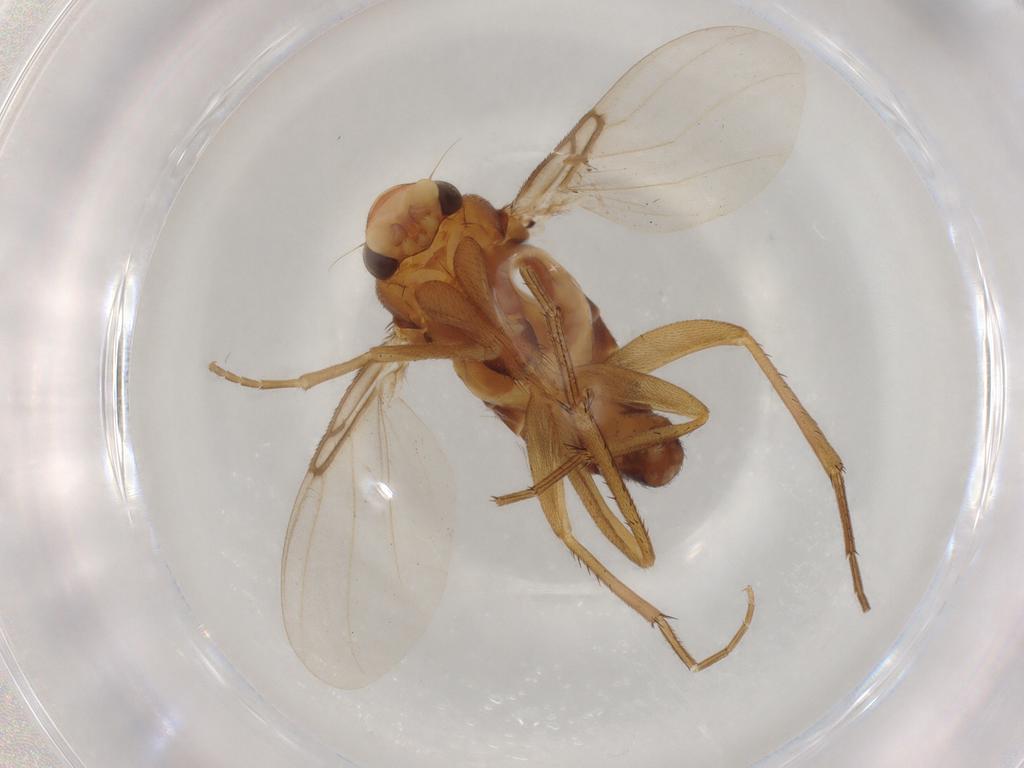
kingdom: Animalia
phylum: Arthropoda
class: Insecta
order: Diptera
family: Phoridae
